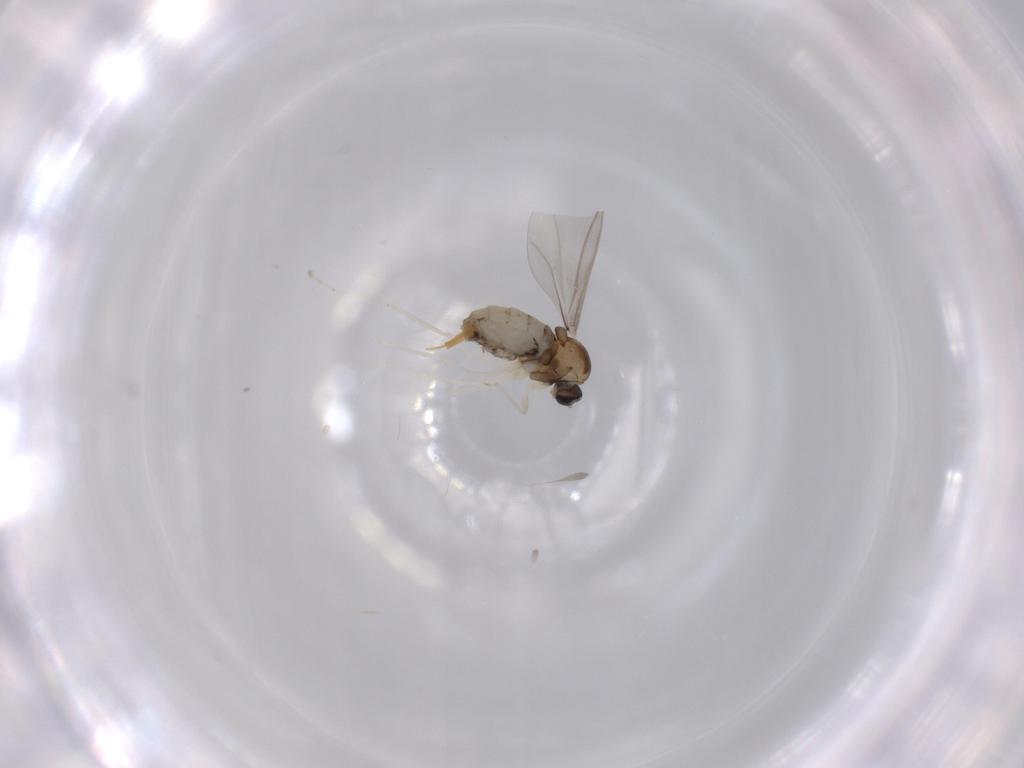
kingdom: Animalia
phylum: Arthropoda
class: Insecta
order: Diptera
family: Cecidomyiidae
